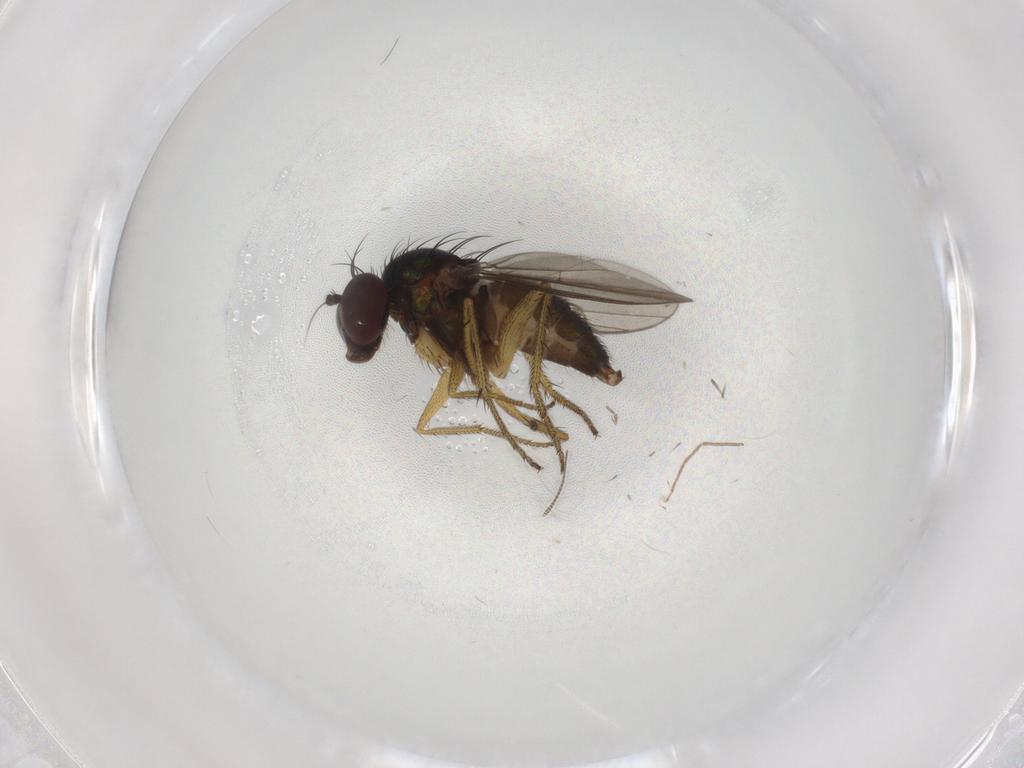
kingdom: Animalia
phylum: Arthropoda
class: Insecta
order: Diptera
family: Dolichopodidae
